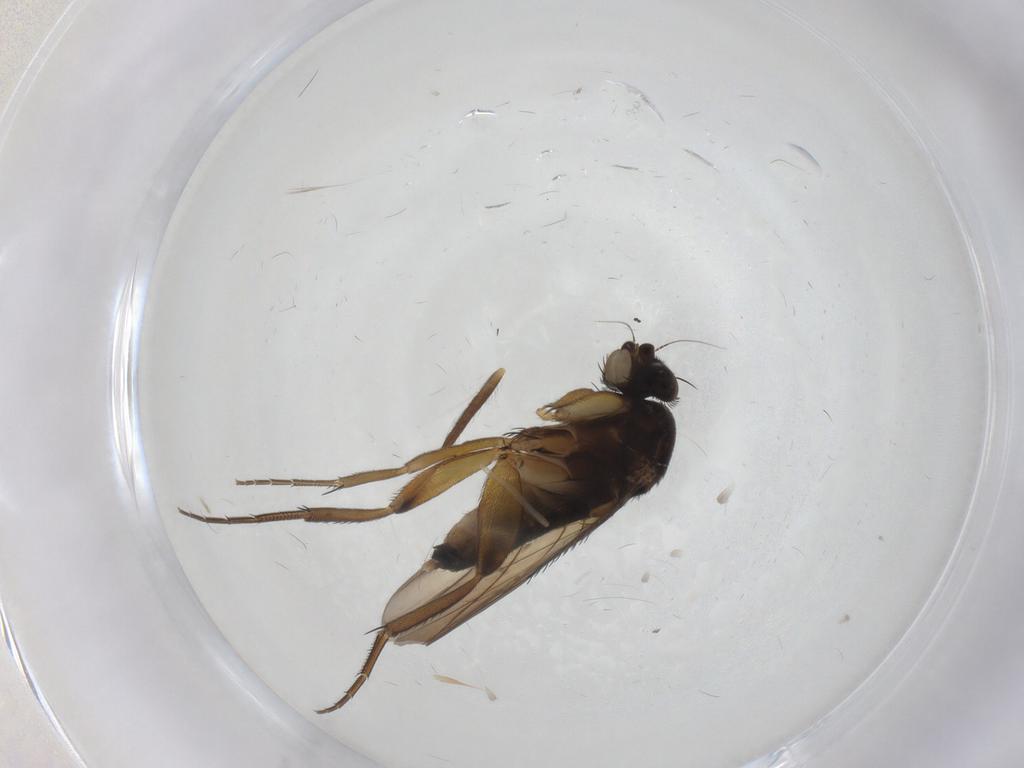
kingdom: Animalia
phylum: Arthropoda
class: Insecta
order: Diptera
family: Phoridae
